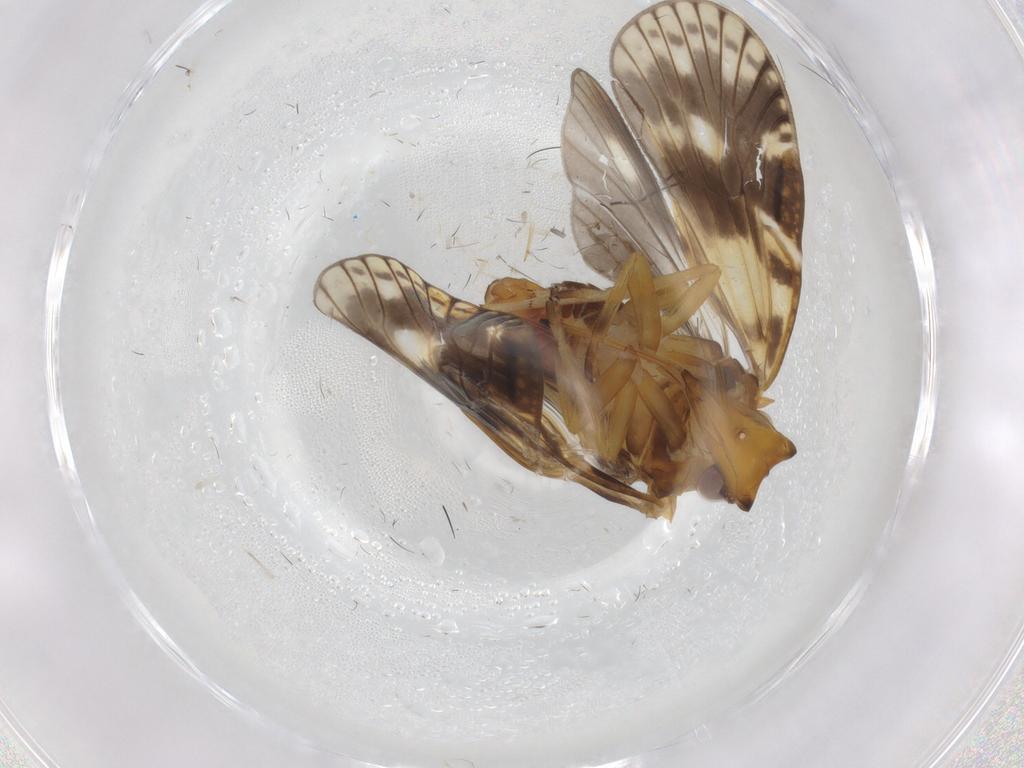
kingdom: Animalia
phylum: Arthropoda
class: Insecta
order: Hemiptera
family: Cixiidae
